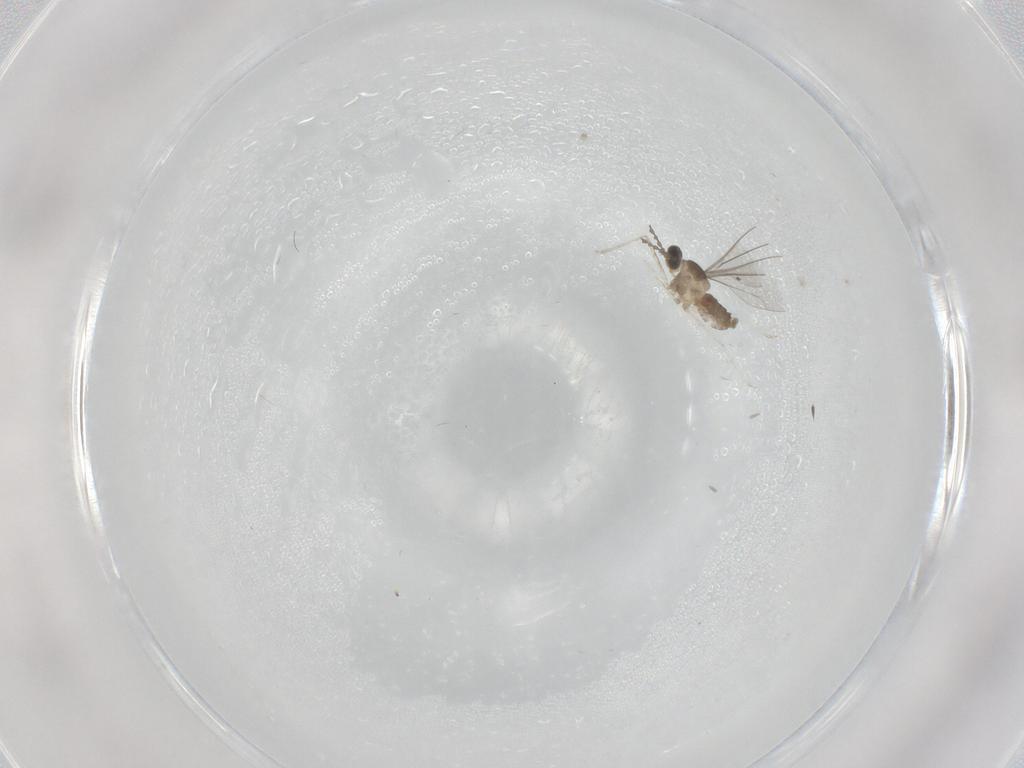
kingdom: Animalia
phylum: Arthropoda
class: Insecta
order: Diptera
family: Cecidomyiidae
